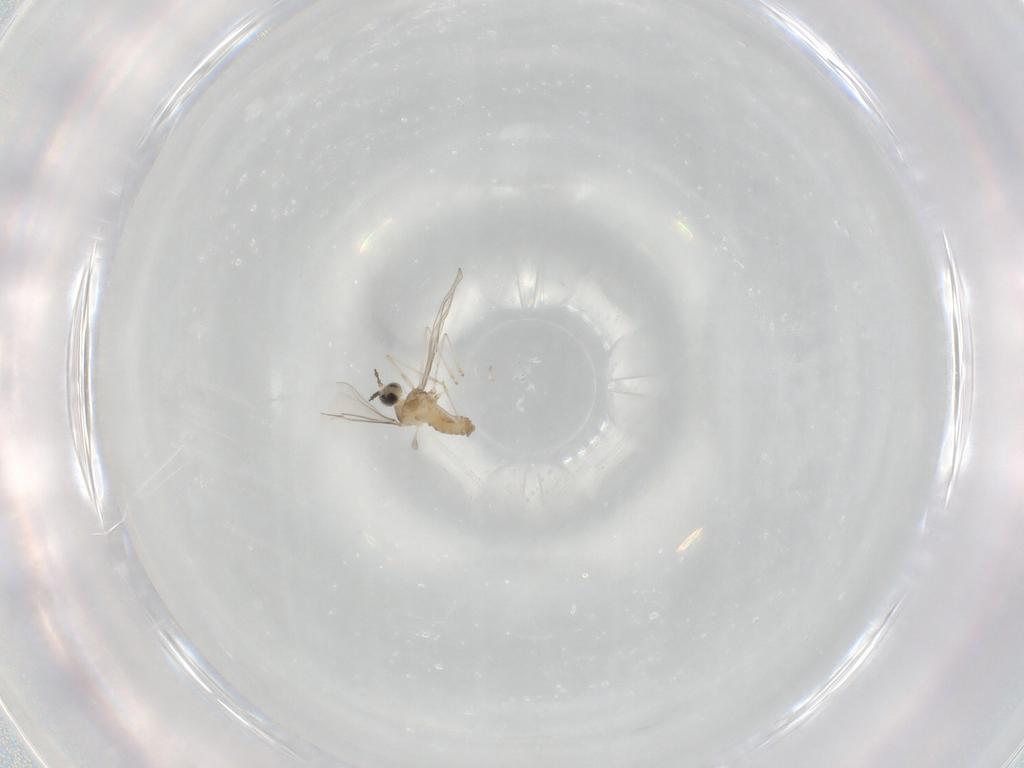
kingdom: Animalia
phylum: Arthropoda
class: Insecta
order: Diptera
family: Cecidomyiidae
